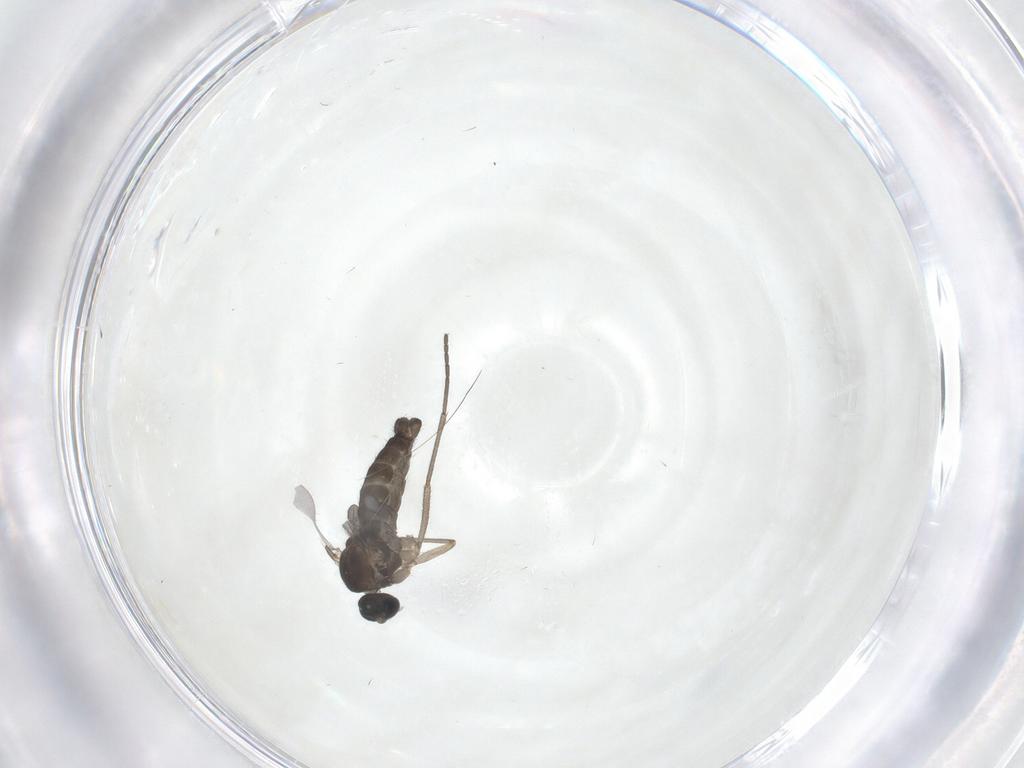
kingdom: Animalia
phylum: Arthropoda
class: Insecta
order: Diptera
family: Sciaridae
